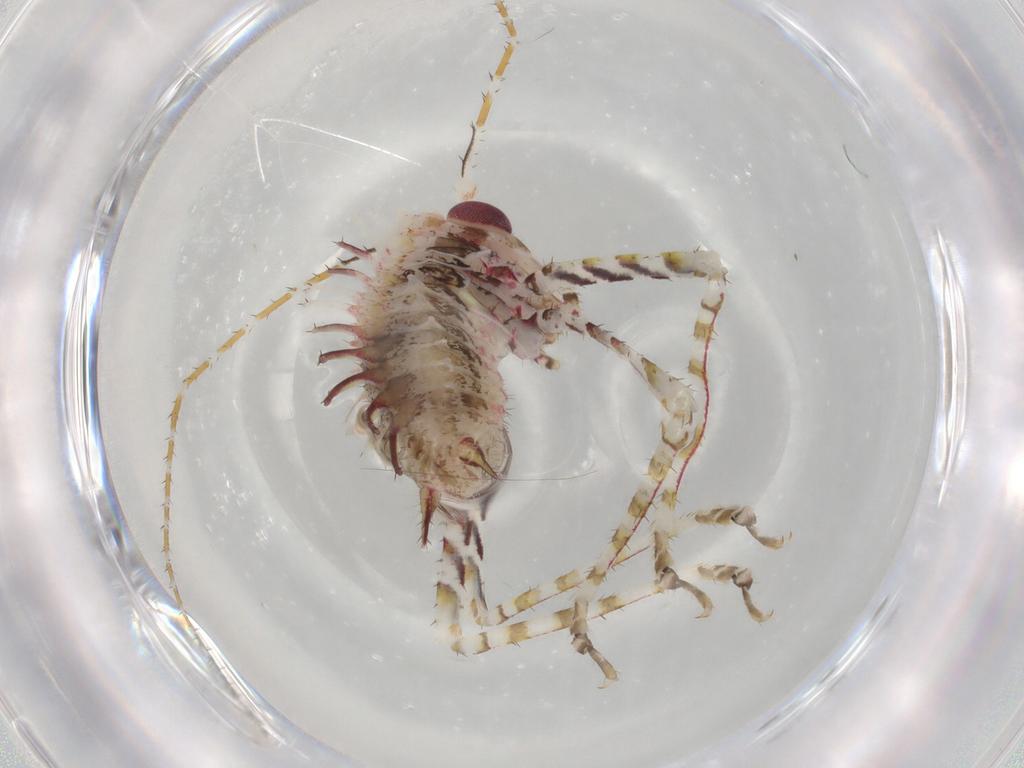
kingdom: Animalia
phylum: Arthropoda
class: Insecta
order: Orthoptera
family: Tettigoniidae
